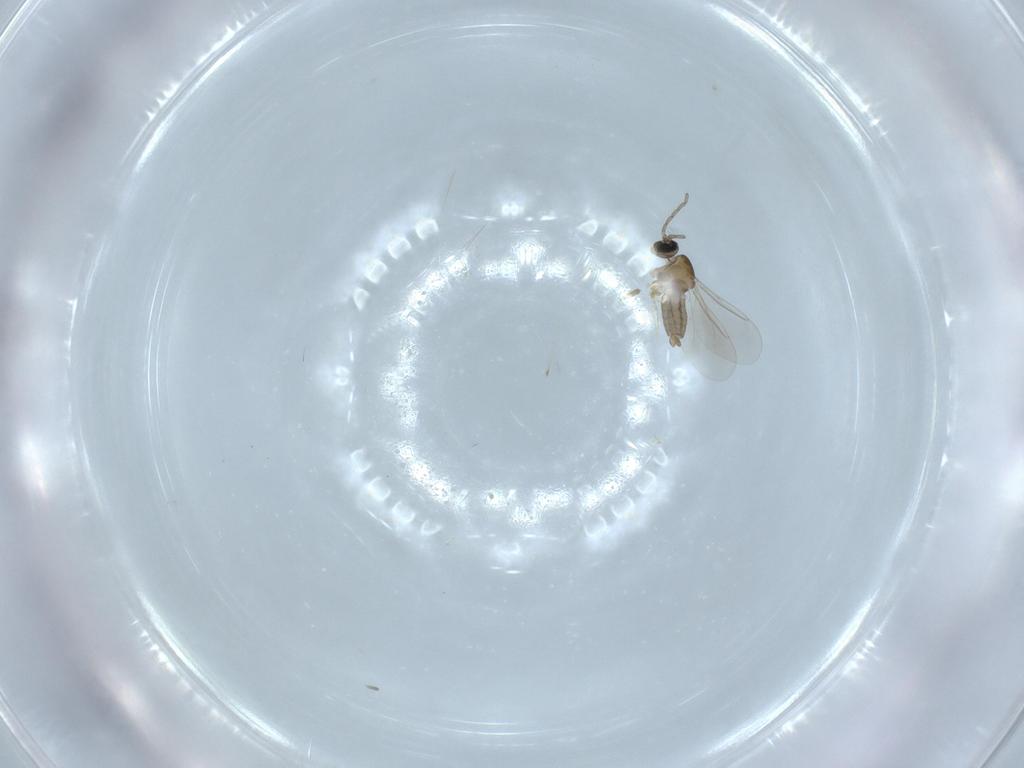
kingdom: Animalia
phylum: Arthropoda
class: Insecta
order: Diptera
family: Cecidomyiidae
